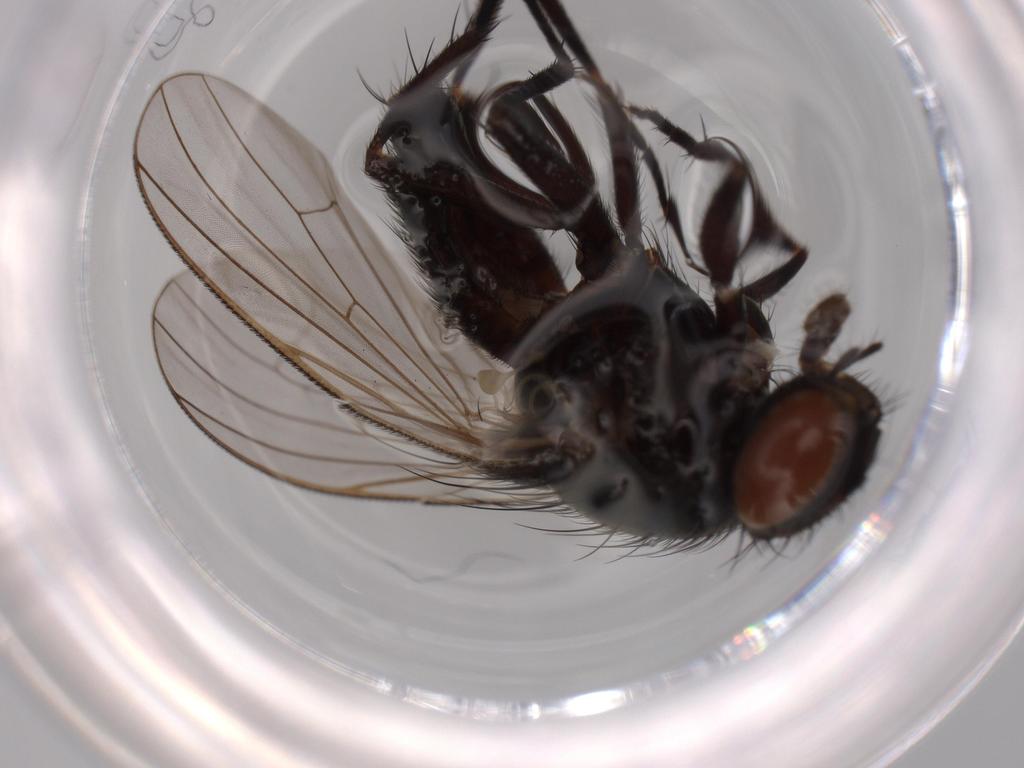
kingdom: Animalia
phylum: Arthropoda
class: Insecta
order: Diptera
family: Fannia
